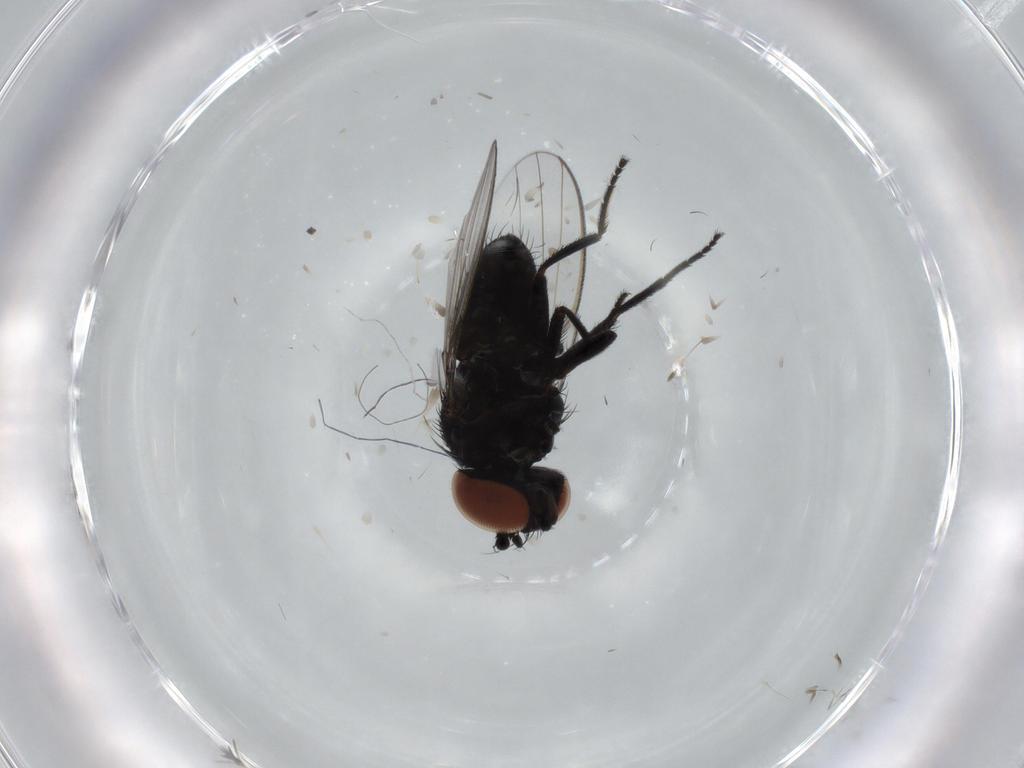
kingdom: Animalia
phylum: Arthropoda
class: Insecta
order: Diptera
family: Milichiidae
